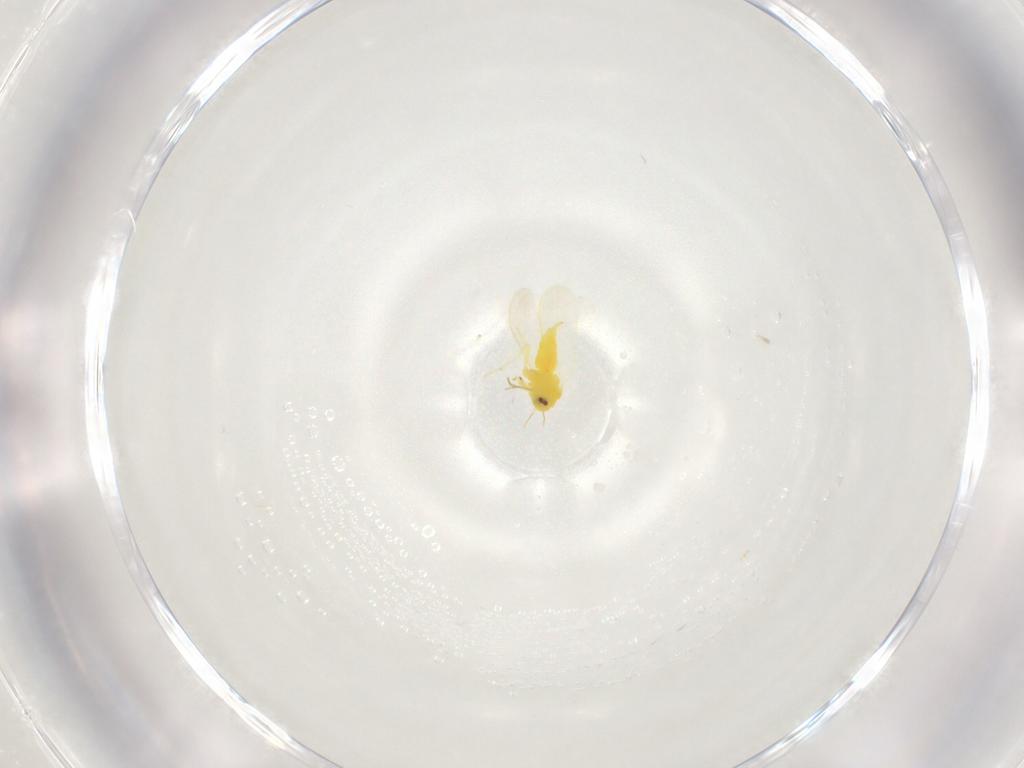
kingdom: Animalia
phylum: Arthropoda
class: Insecta
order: Hemiptera
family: Aleyrodidae
